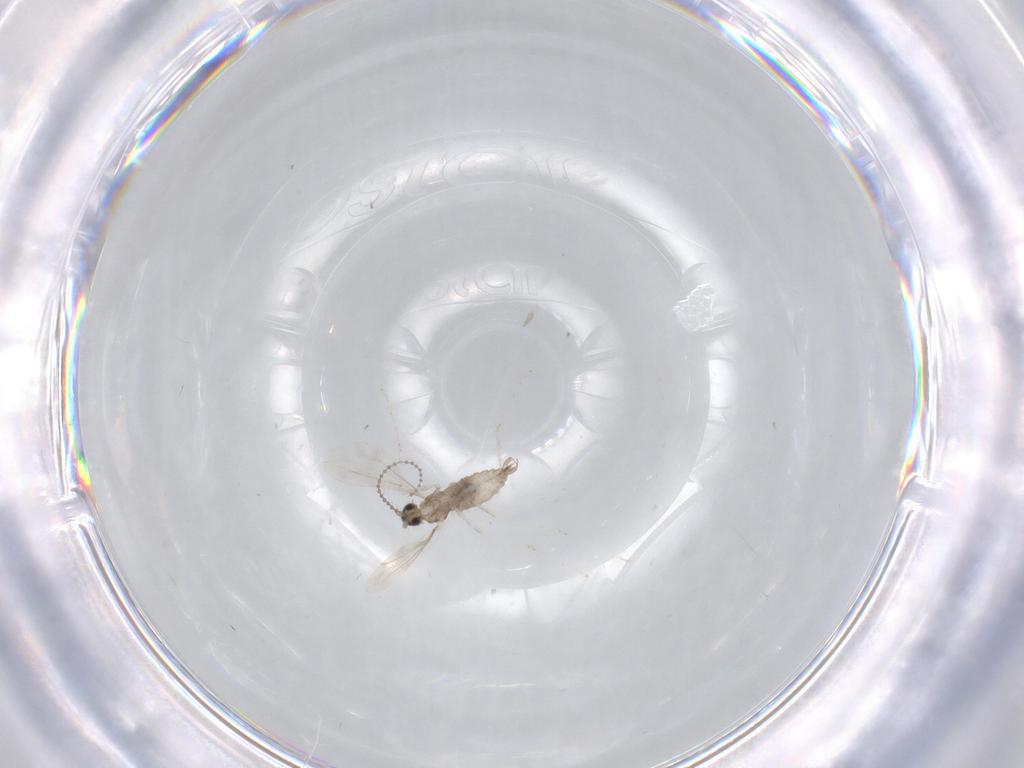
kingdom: Animalia
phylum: Arthropoda
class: Insecta
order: Diptera
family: Cecidomyiidae
